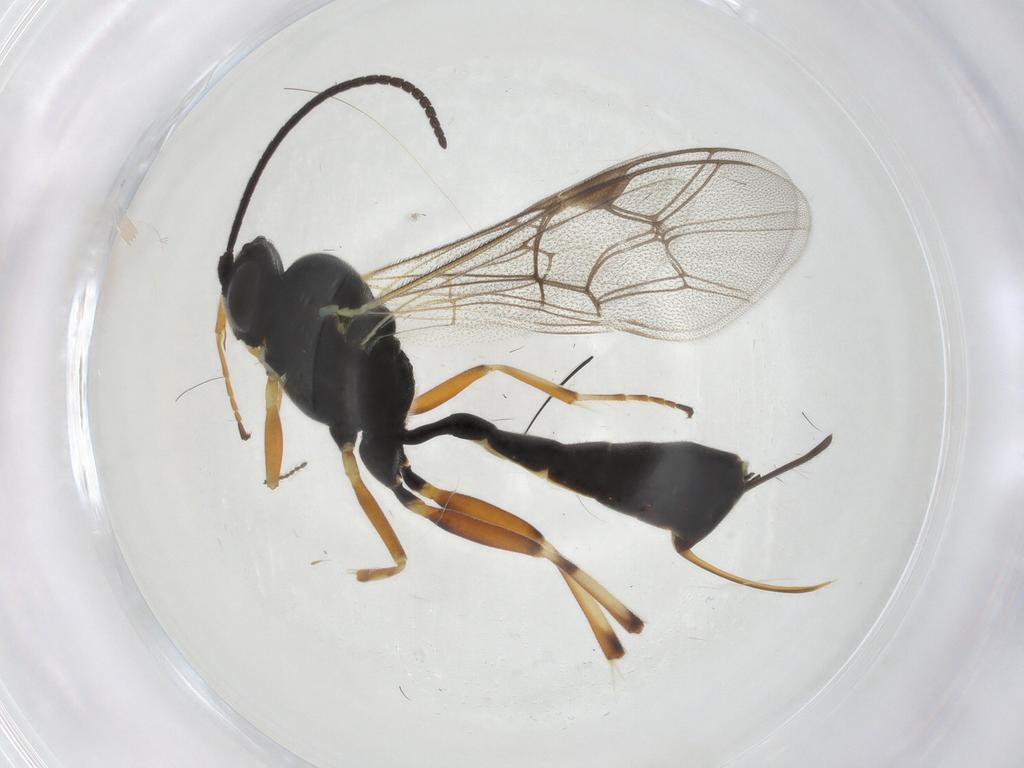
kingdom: Animalia
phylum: Arthropoda
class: Insecta
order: Hymenoptera
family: Ichneumonidae
